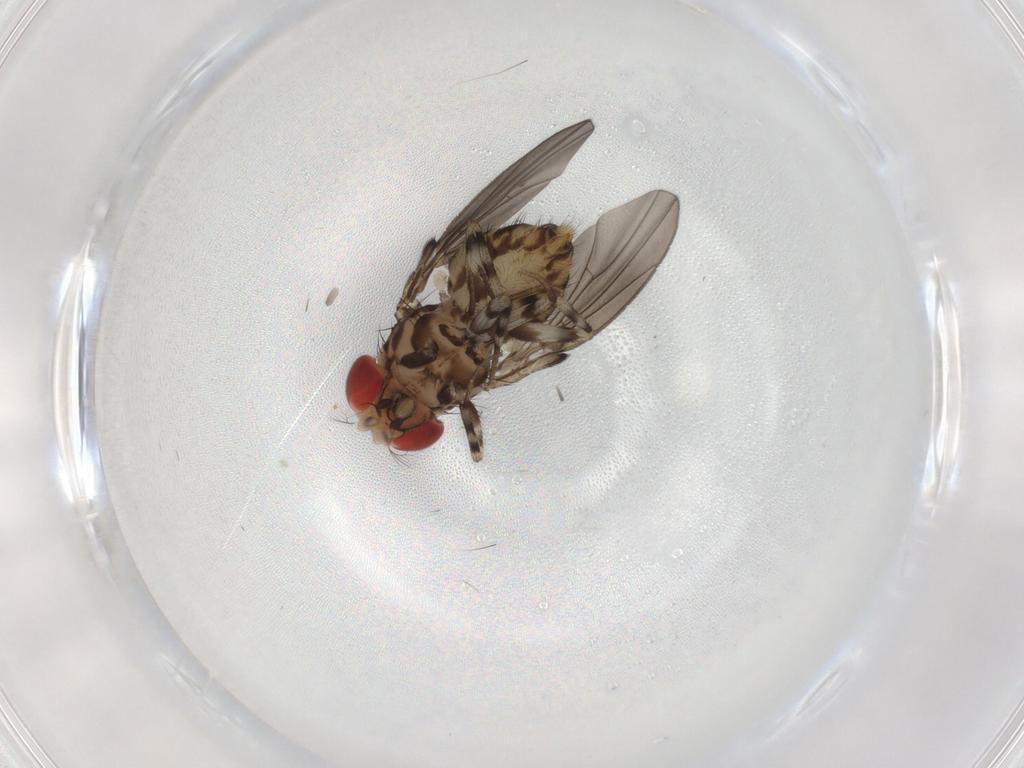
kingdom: Animalia
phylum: Arthropoda
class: Insecta
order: Diptera
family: Drosophilidae
